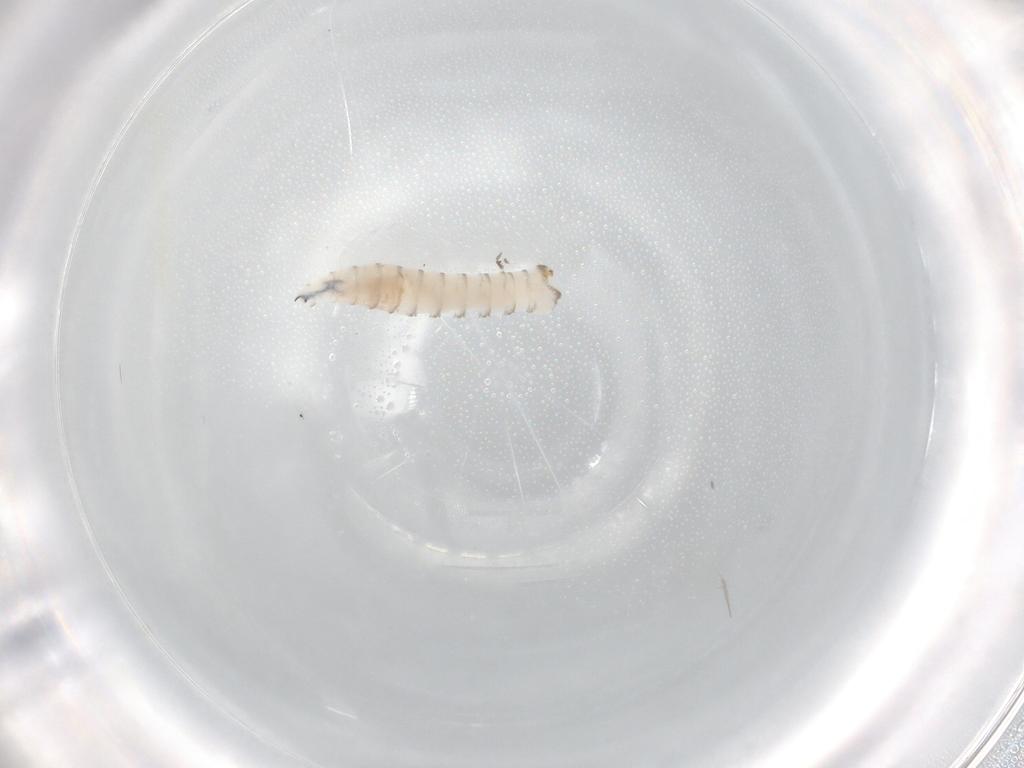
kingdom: Animalia
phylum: Arthropoda
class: Insecta
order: Diptera
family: Sarcophagidae
